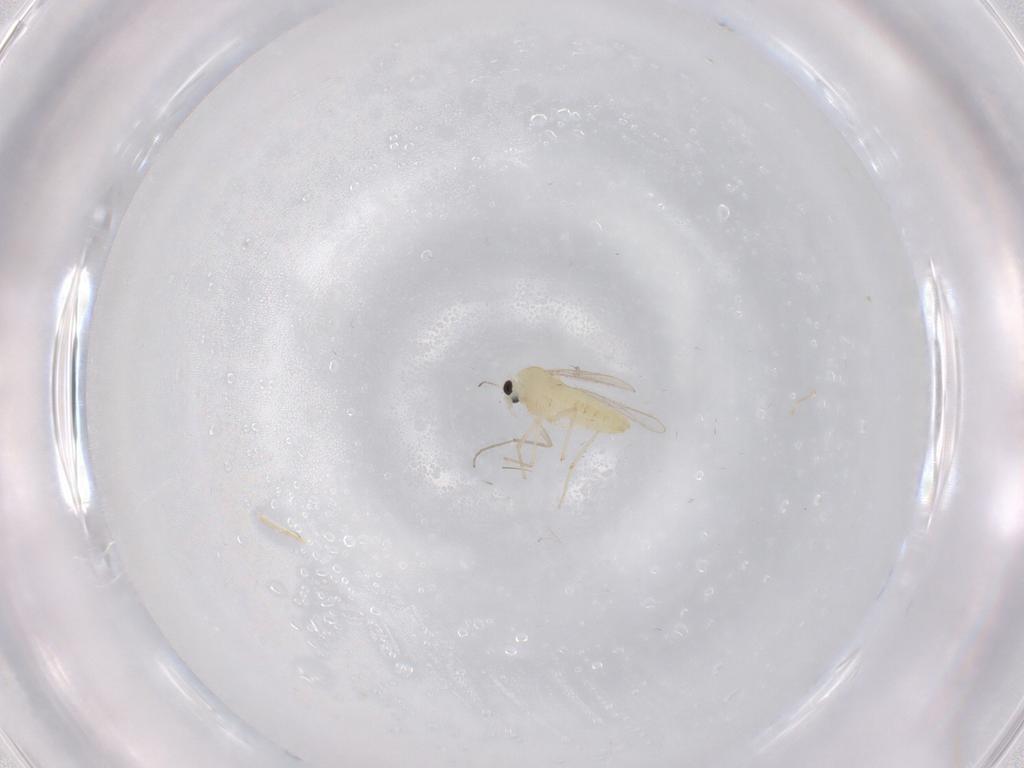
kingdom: Animalia
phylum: Arthropoda
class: Insecta
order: Diptera
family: Chironomidae
